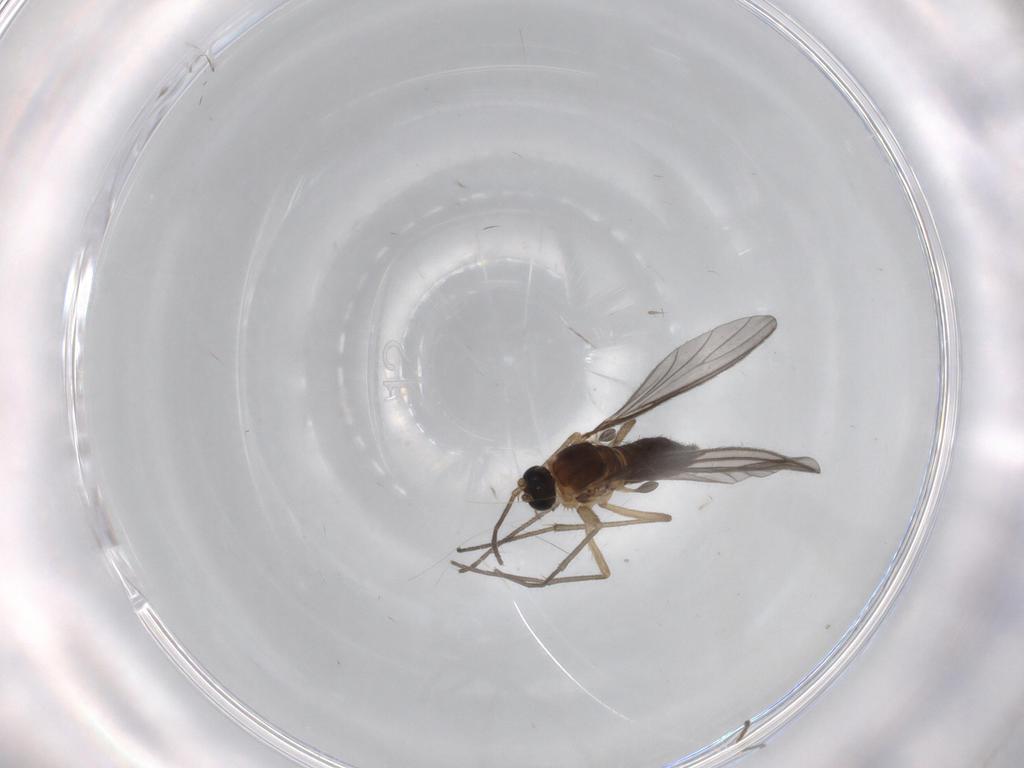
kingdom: Animalia
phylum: Arthropoda
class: Insecta
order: Diptera
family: Sciaridae
